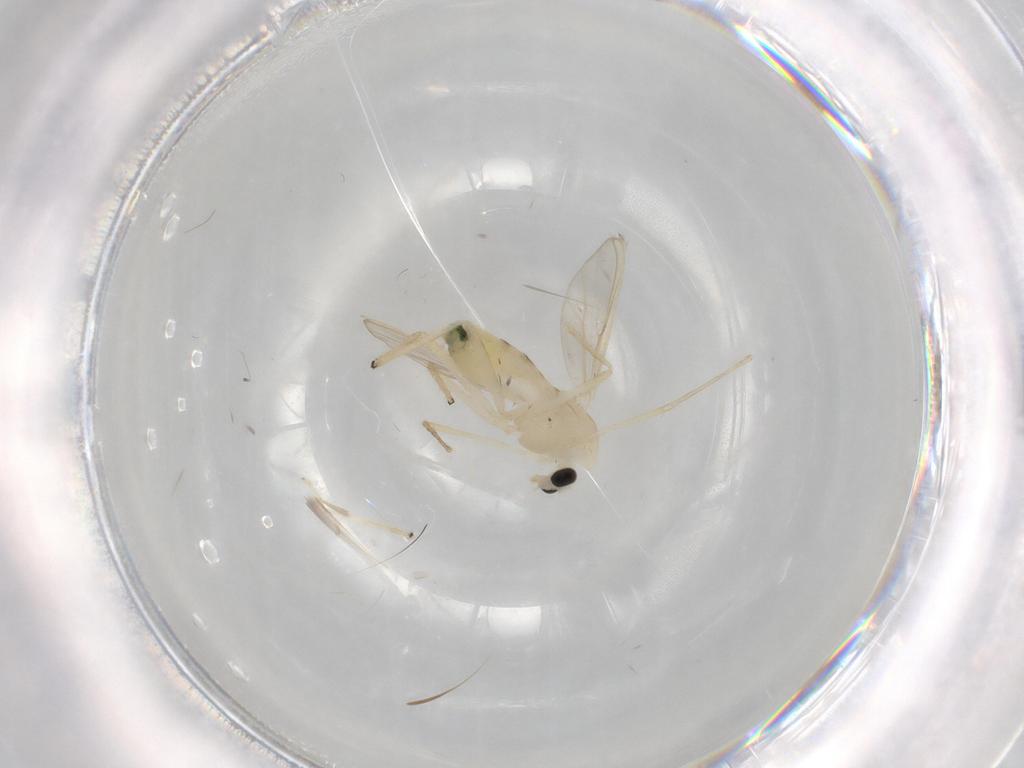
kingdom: Animalia
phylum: Arthropoda
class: Insecta
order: Diptera
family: Chironomidae
